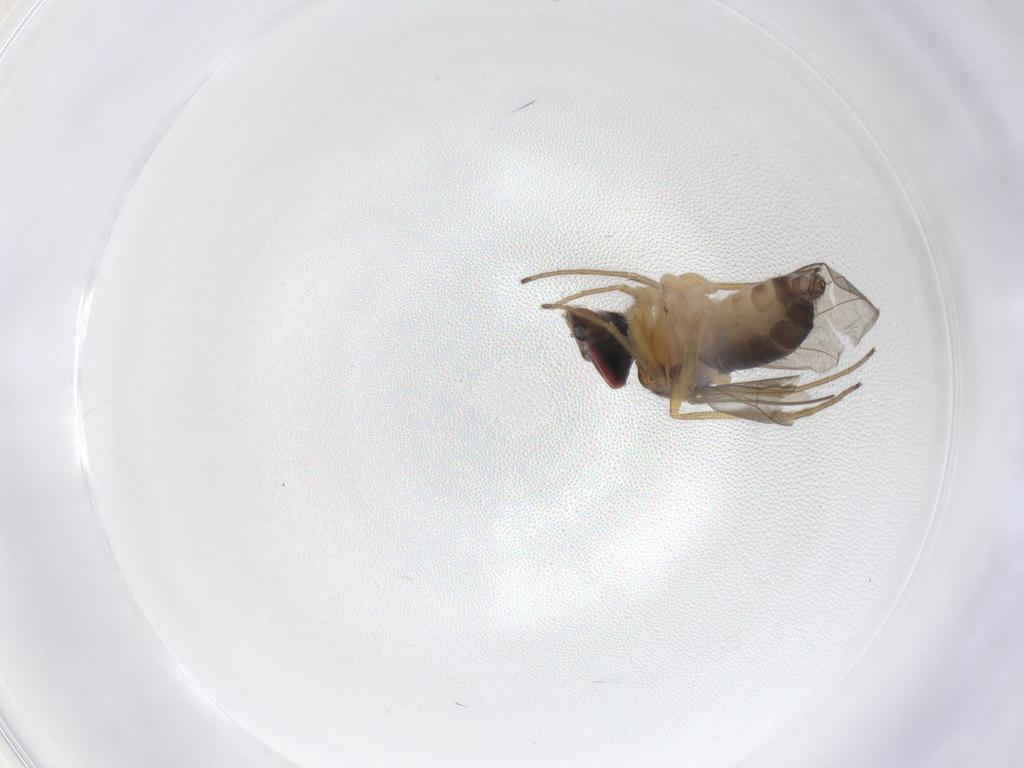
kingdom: Animalia
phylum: Arthropoda
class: Insecta
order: Diptera
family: Dolichopodidae
